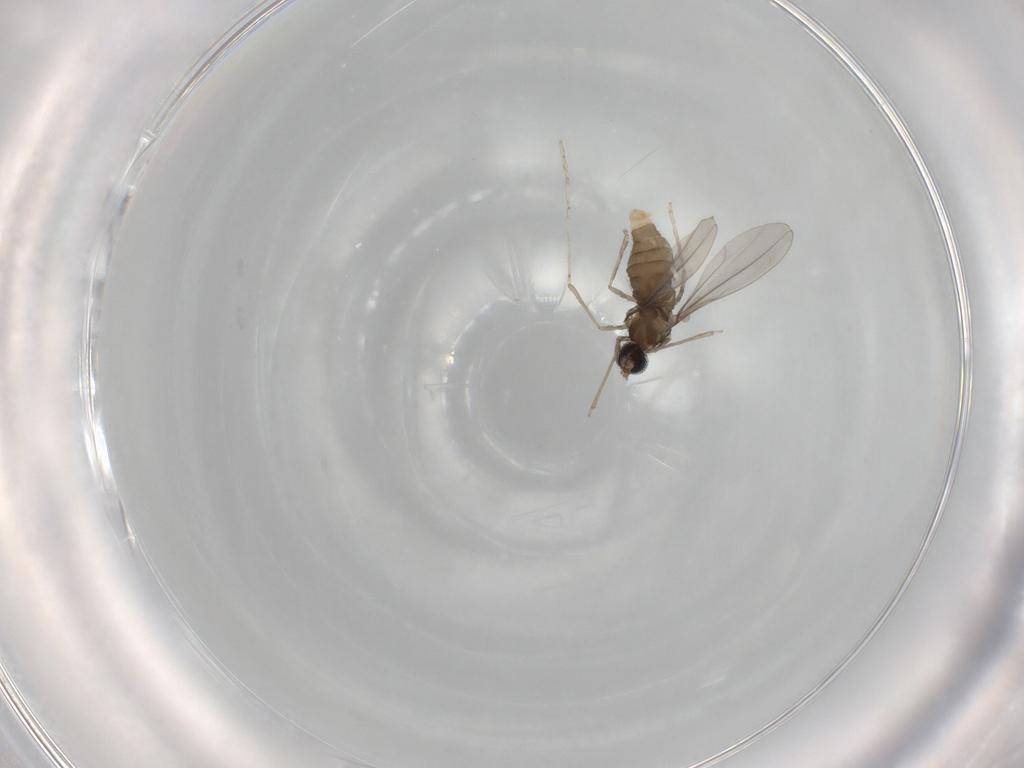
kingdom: Animalia
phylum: Arthropoda
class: Insecta
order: Diptera
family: Cecidomyiidae
